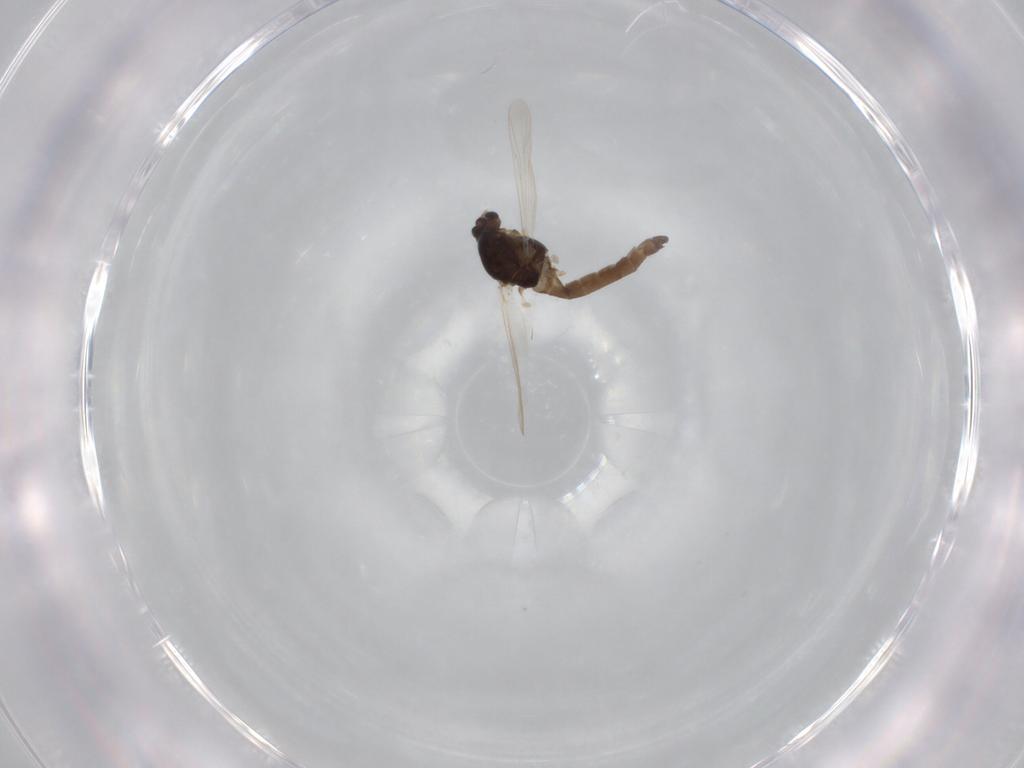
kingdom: Animalia
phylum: Arthropoda
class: Insecta
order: Diptera
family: Chironomidae
